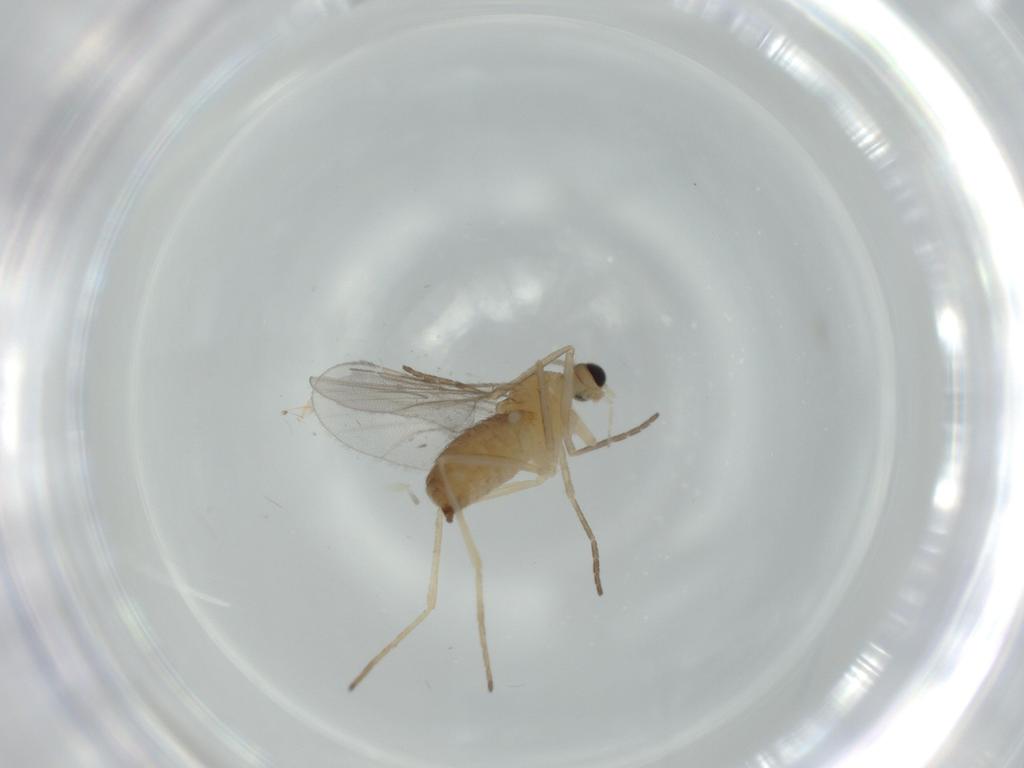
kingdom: Animalia
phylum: Arthropoda
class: Insecta
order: Diptera
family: Cecidomyiidae
